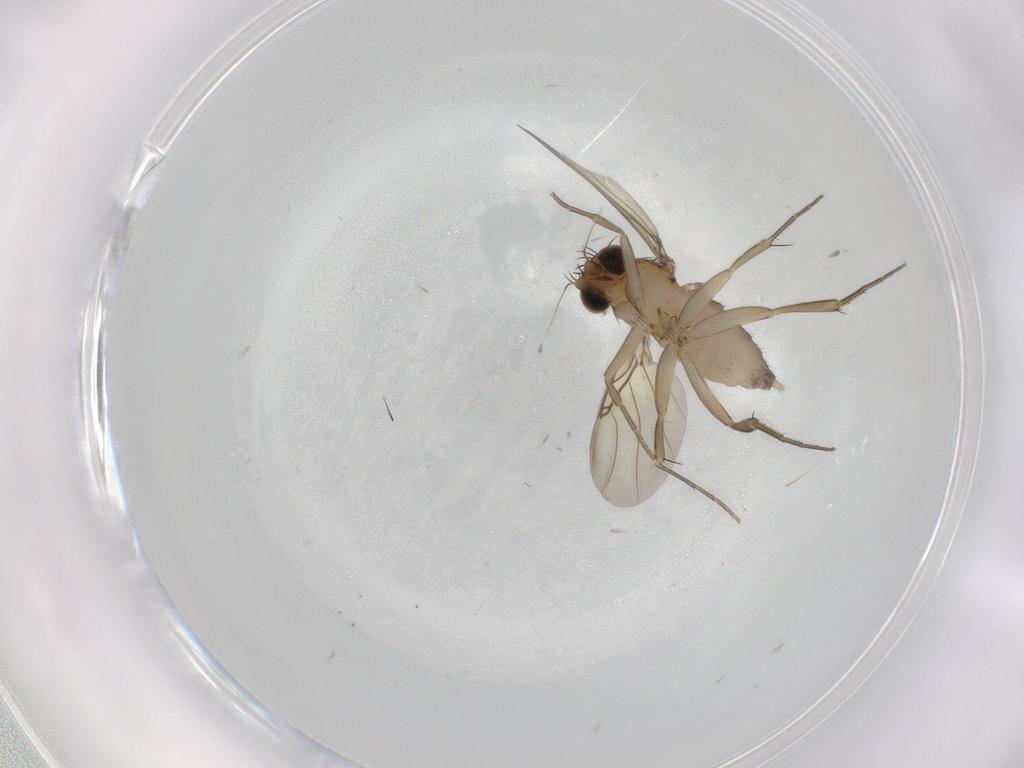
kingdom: Animalia
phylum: Arthropoda
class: Insecta
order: Diptera
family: Phoridae
